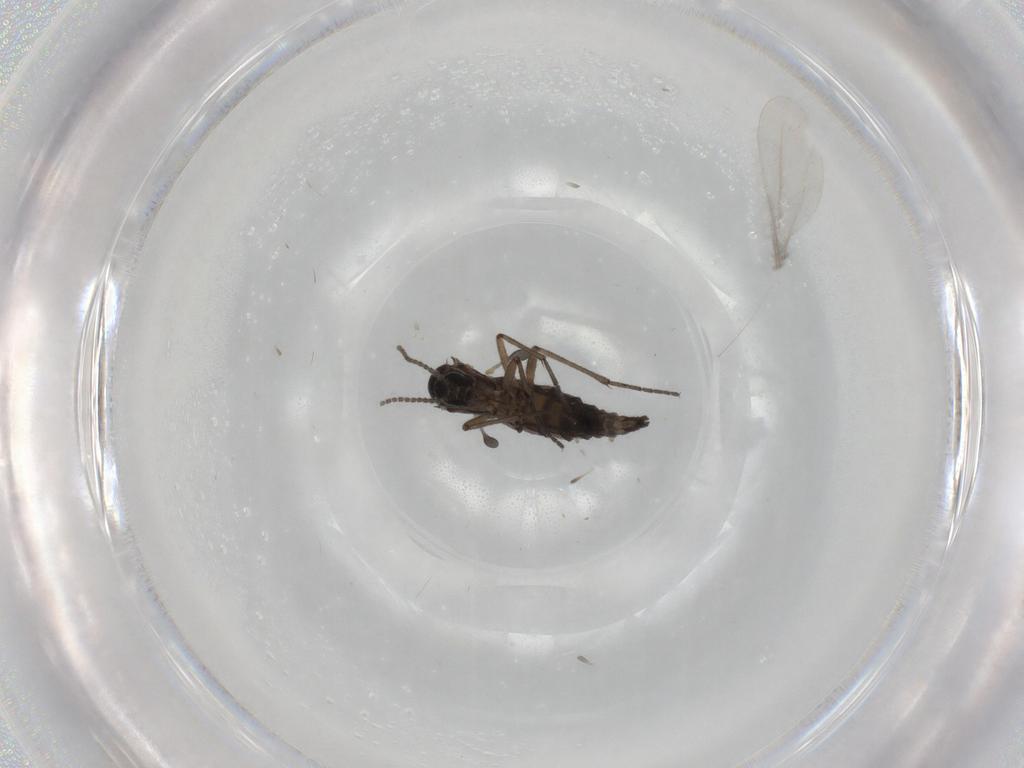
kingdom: Animalia
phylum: Arthropoda
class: Insecta
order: Diptera
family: Sciaridae
